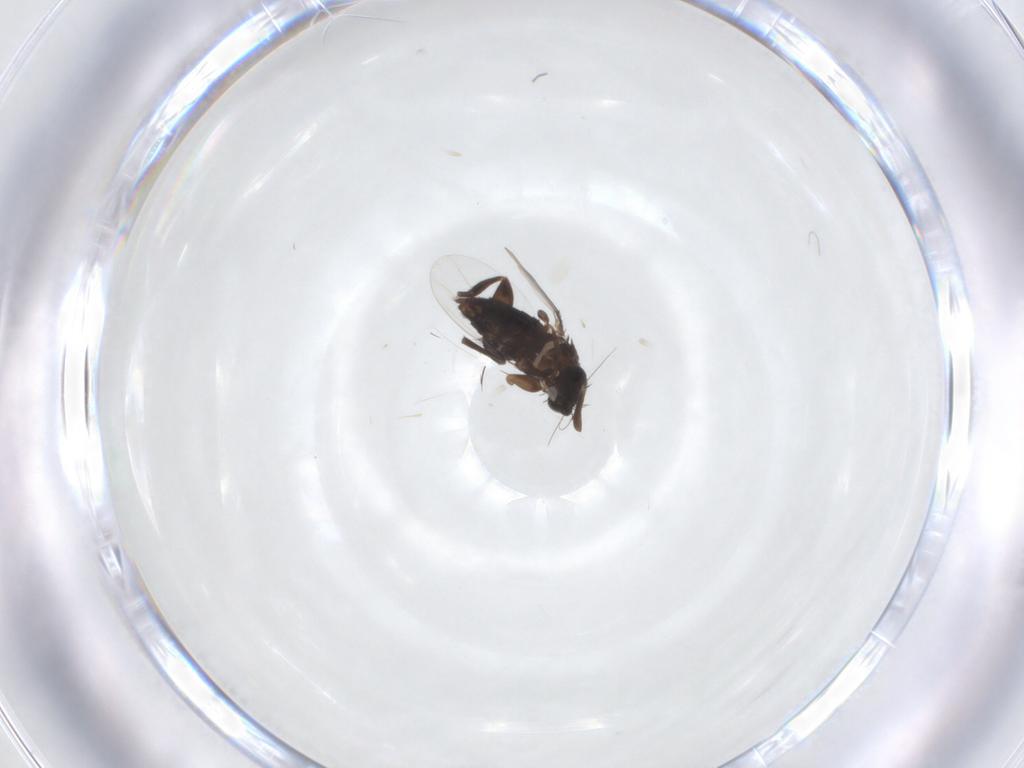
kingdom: Animalia
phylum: Arthropoda
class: Insecta
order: Diptera
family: Phoridae
